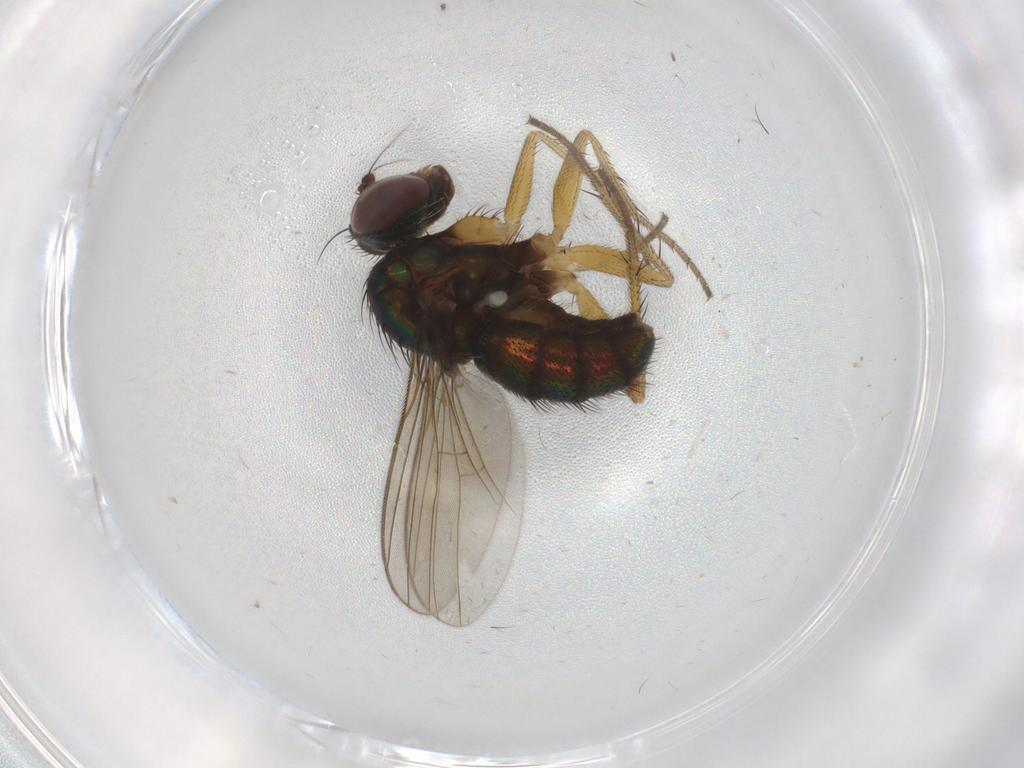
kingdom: Animalia
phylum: Arthropoda
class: Insecta
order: Diptera
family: Dolichopodidae
